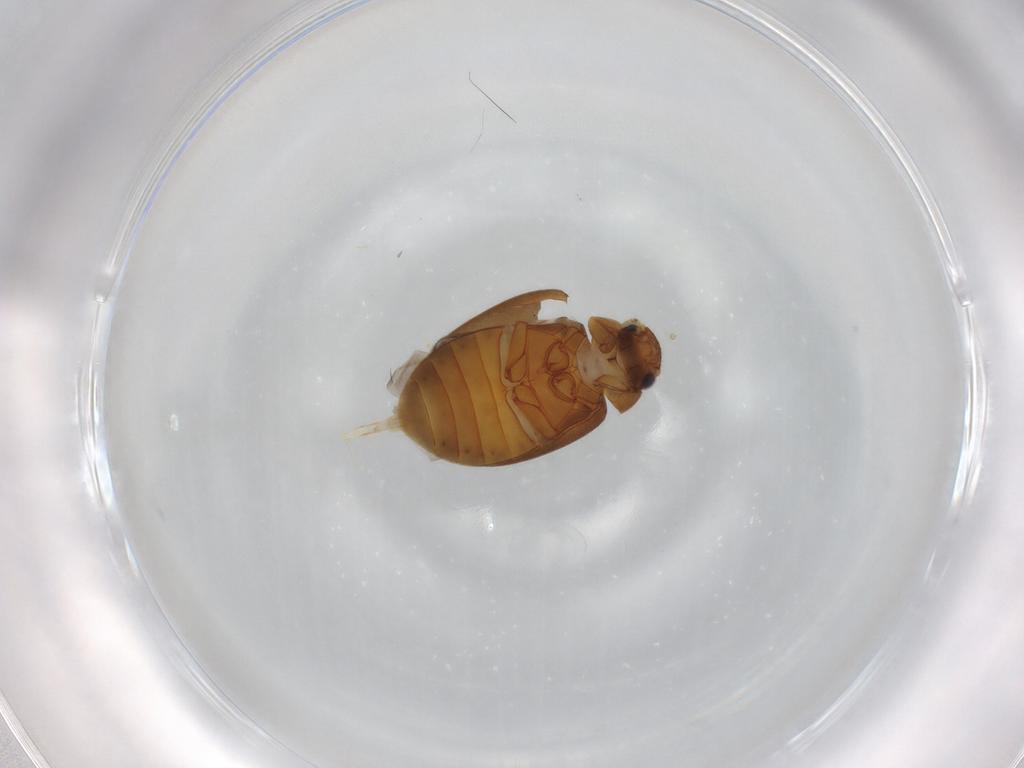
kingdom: Animalia
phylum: Arthropoda
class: Insecta
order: Coleoptera
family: Scirtidae
